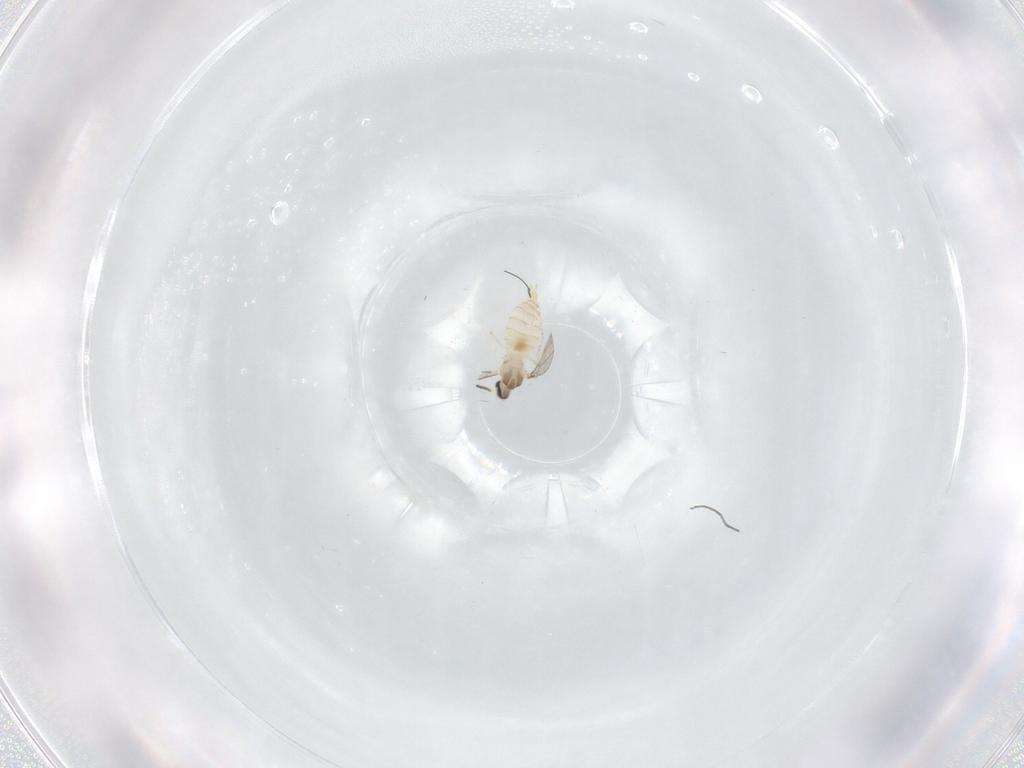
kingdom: Animalia
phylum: Arthropoda
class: Insecta
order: Diptera
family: Cecidomyiidae
